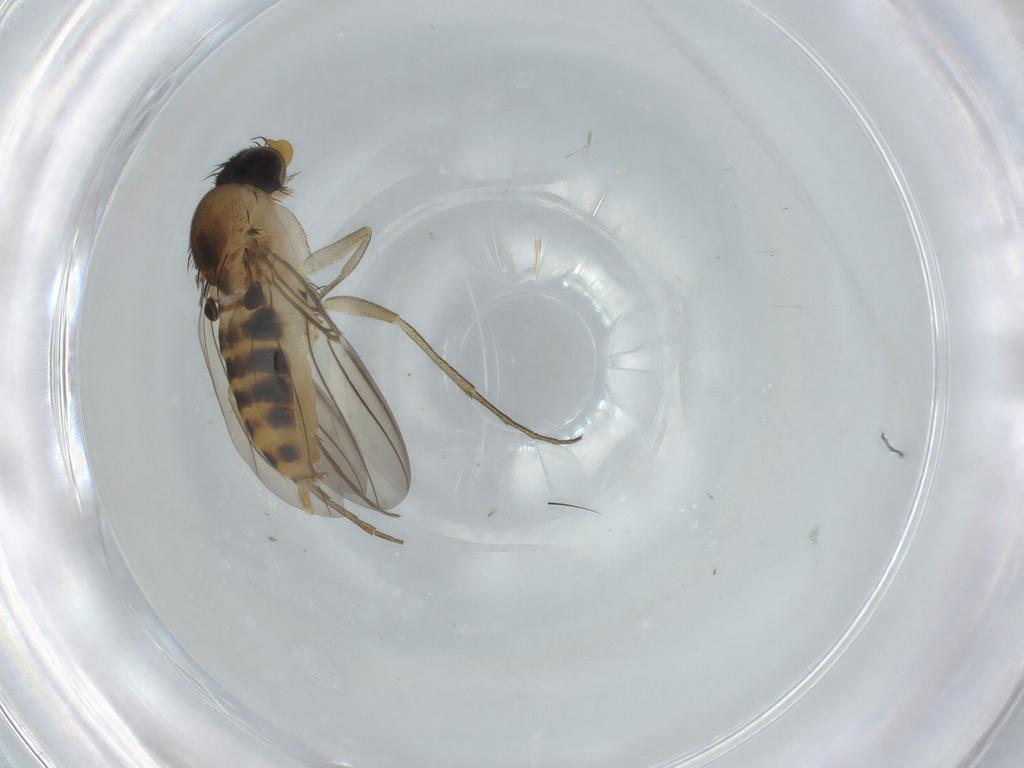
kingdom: Animalia
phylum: Arthropoda
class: Insecta
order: Diptera
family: Phoridae
